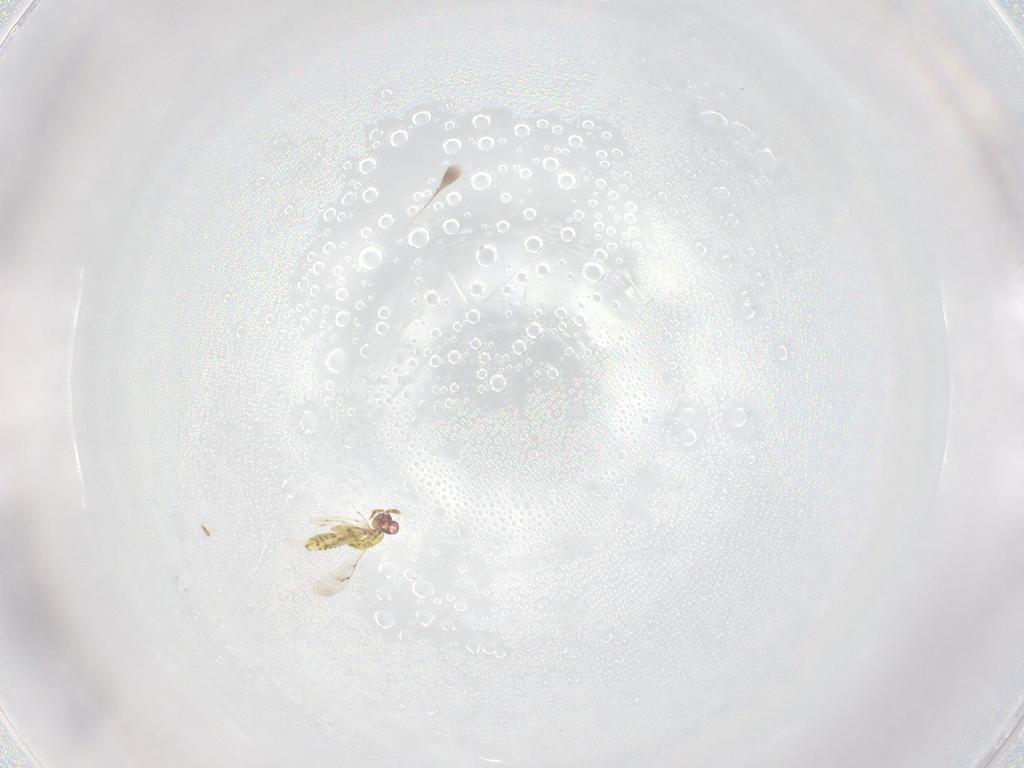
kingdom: Animalia
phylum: Arthropoda
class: Insecta
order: Hymenoptera
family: Eulophidae
